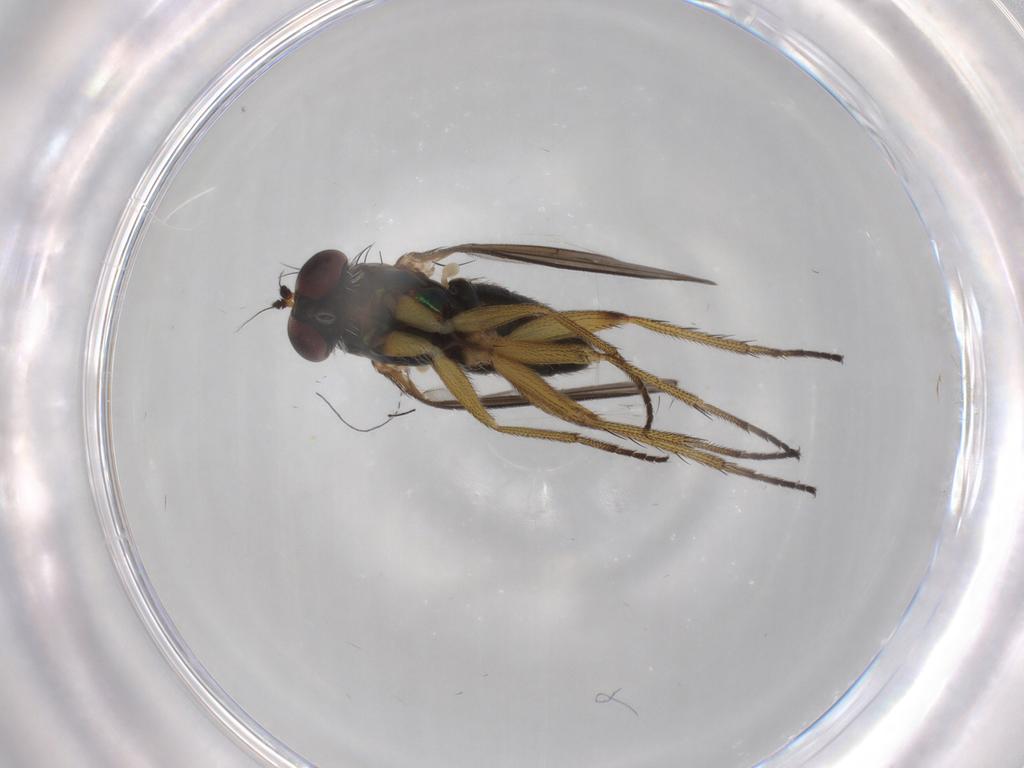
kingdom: Animalia
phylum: Arthropoda
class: Insecta
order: Diptera
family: Dolichopodidae
